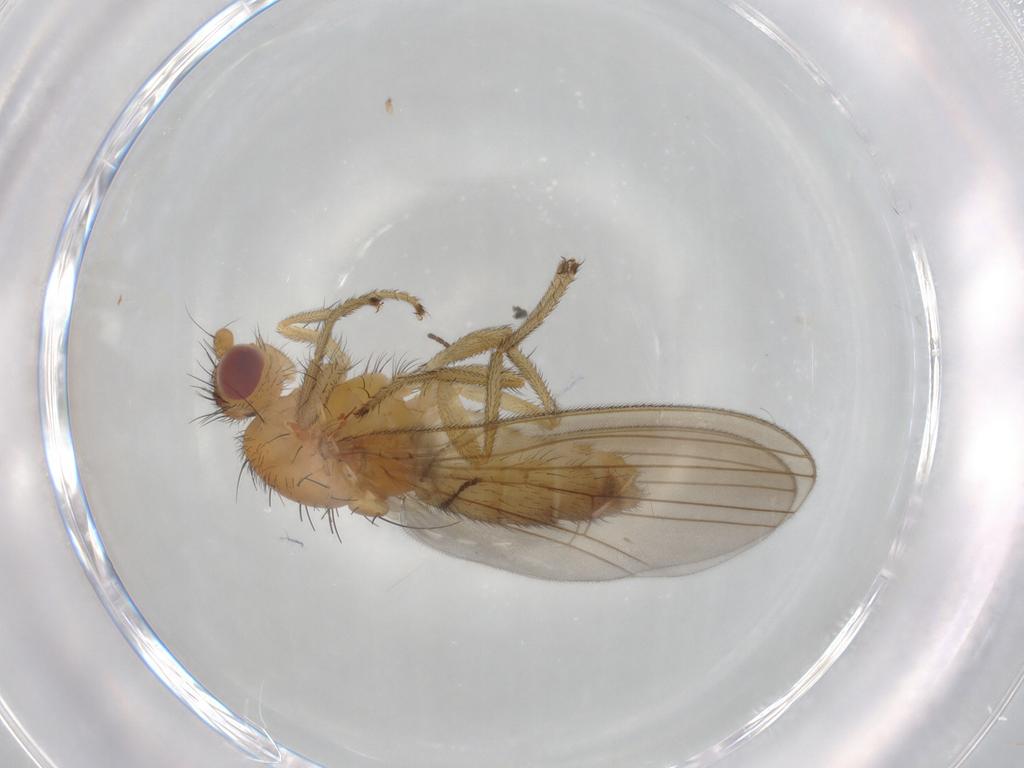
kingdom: Animalia
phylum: Arthropoda
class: Insecta
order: Diptera
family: Natalimyzidae
